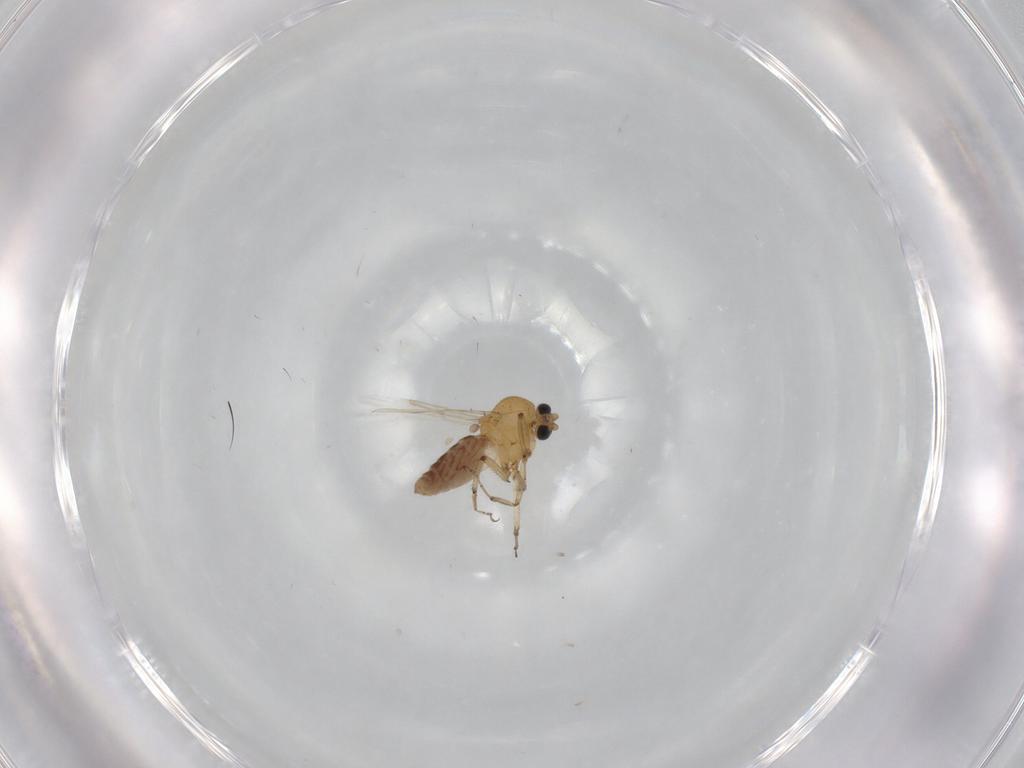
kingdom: Animalia
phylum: Arthropoda
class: Insecta
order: Diptera
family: Ceratopogonidae
